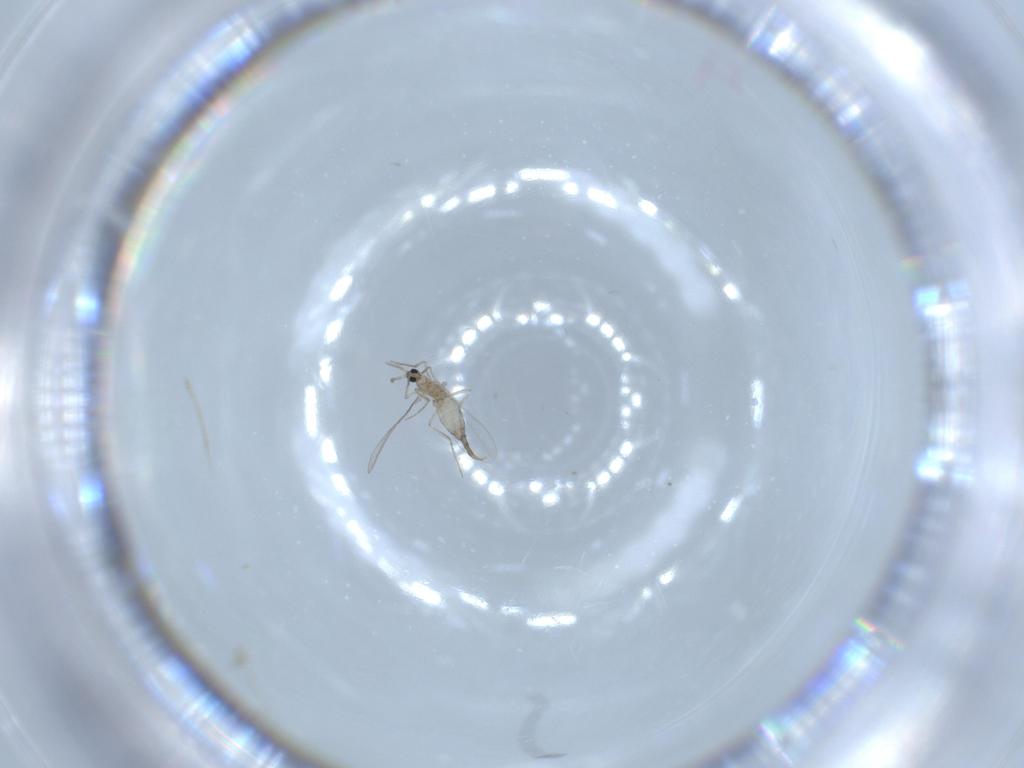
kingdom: Animalia
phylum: Arthropoda
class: Insecta
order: Diptera
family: Cecidomyiidae
